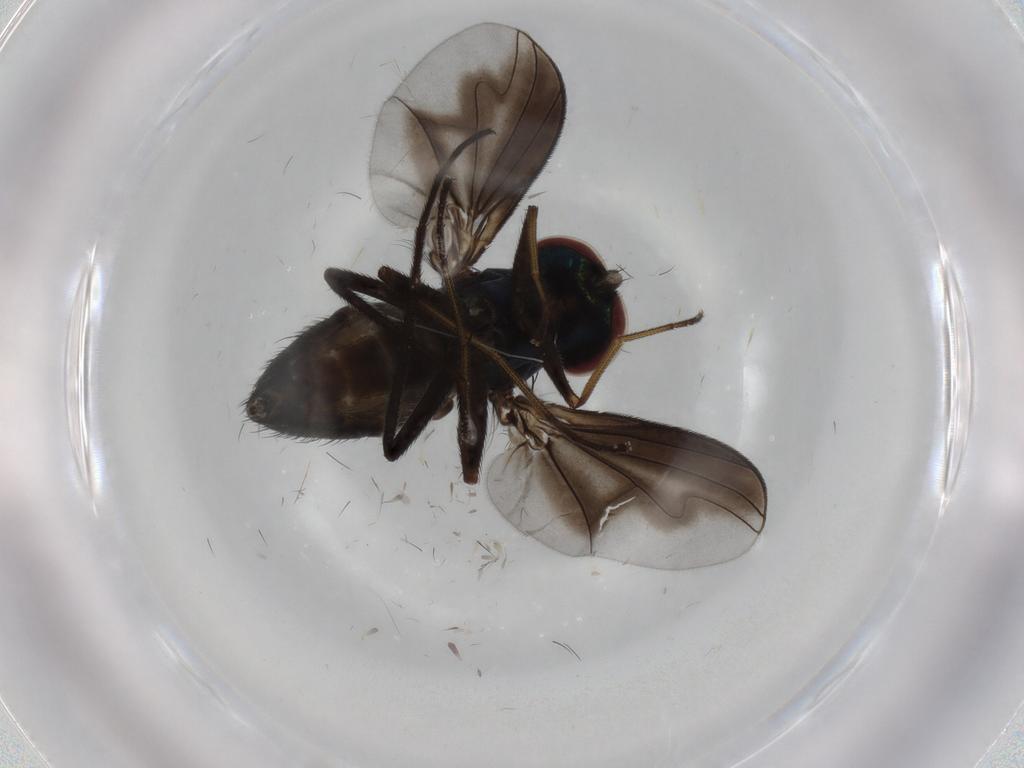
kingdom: Animalia
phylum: Arthropoda
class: Insecta
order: Diptera
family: Dolichopodidae
